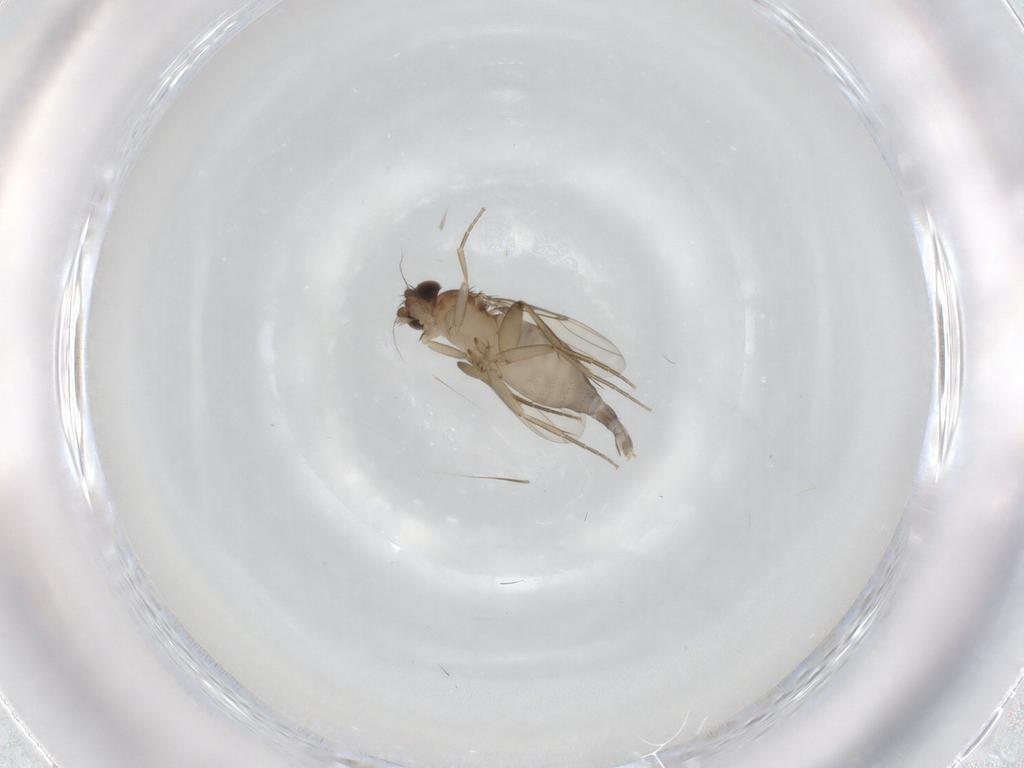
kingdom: Animalia
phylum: Arthropoda
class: Insecta
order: Diptera
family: Phoridae
